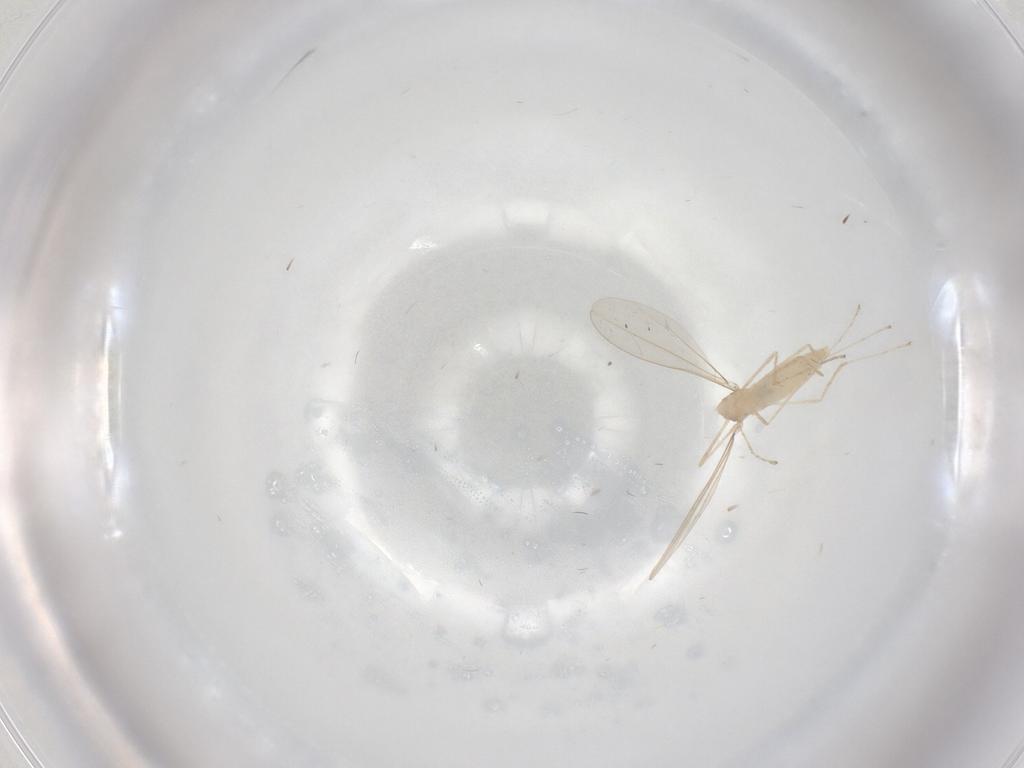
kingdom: Animalia
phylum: Arthropoda
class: Insecta
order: Diptera
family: Cecidomyiidae
